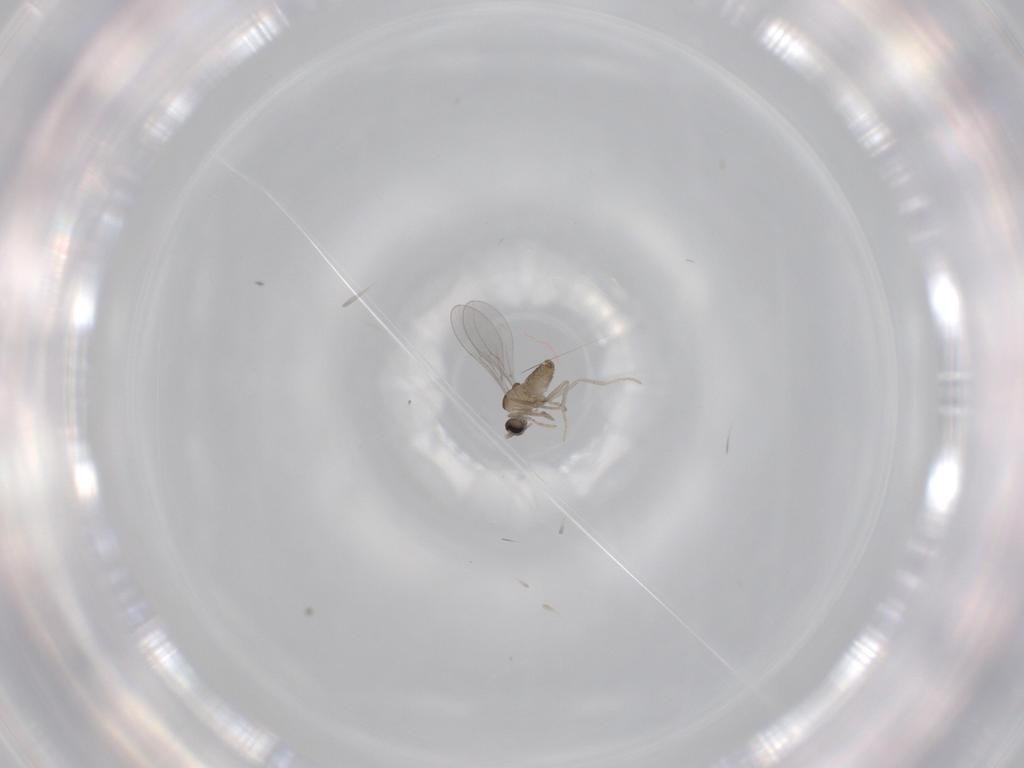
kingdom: Animalia
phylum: Arthropoda
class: Insecta
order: Diptera
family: Cecidomyiidae
